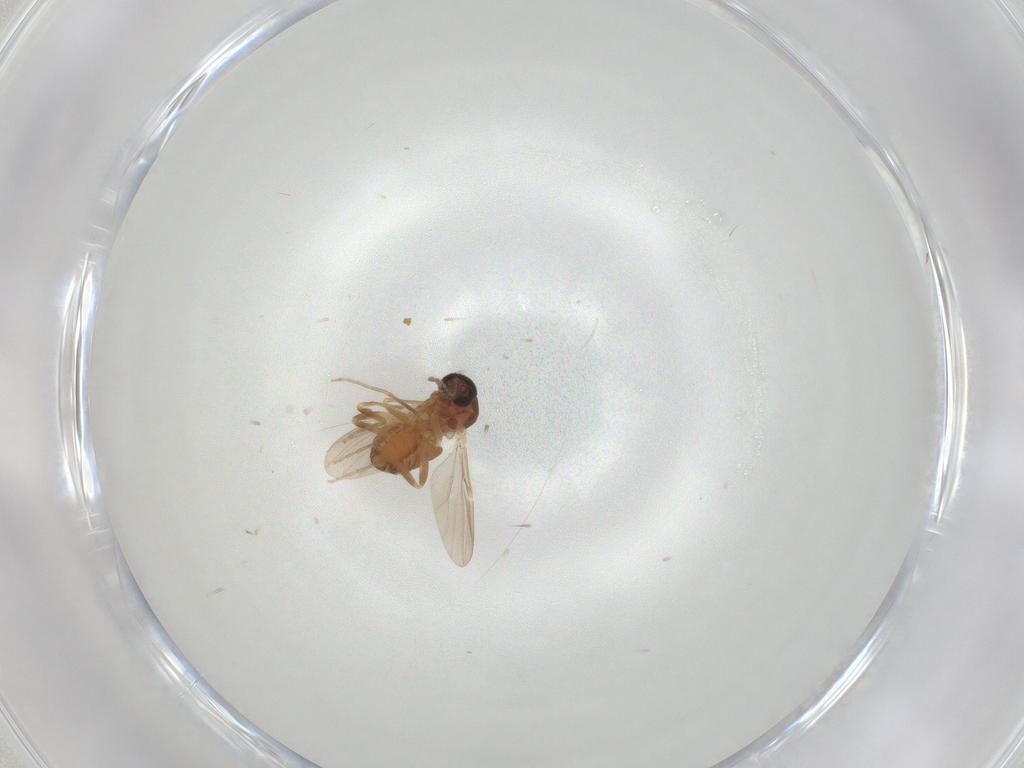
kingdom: Animalia
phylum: Arthropoda
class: Insecta
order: Diptera
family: Ceratopogonidae
